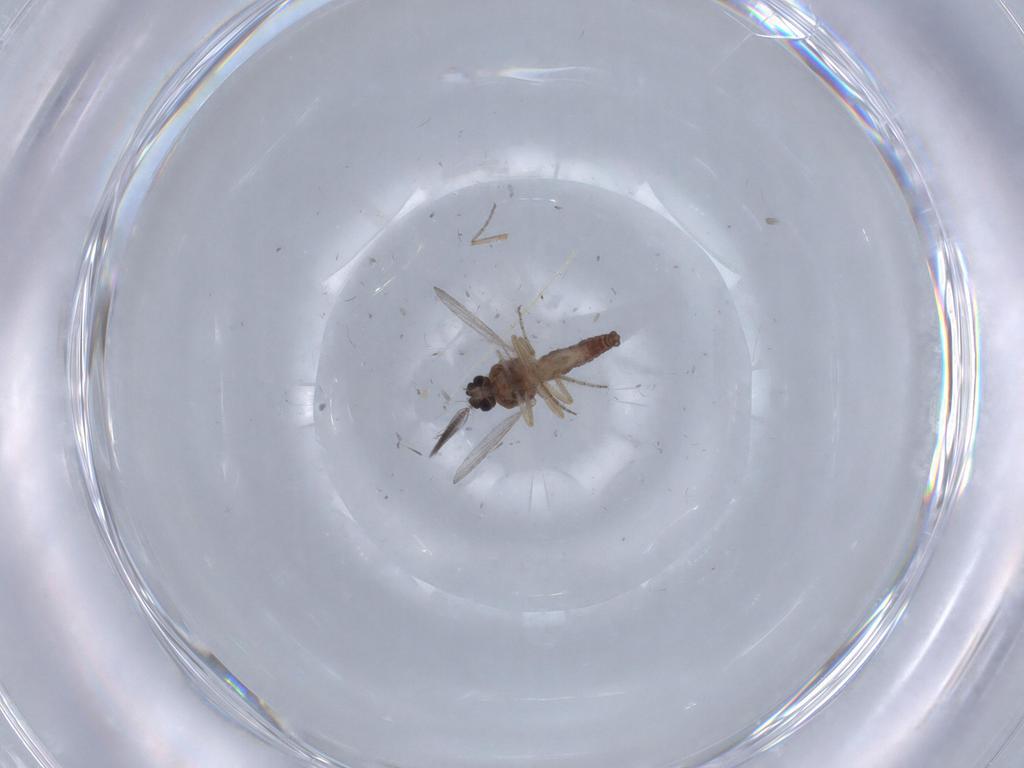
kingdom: Animalia
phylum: Arthropoda
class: Insecta
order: Diptera
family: Ceratopogonidae
